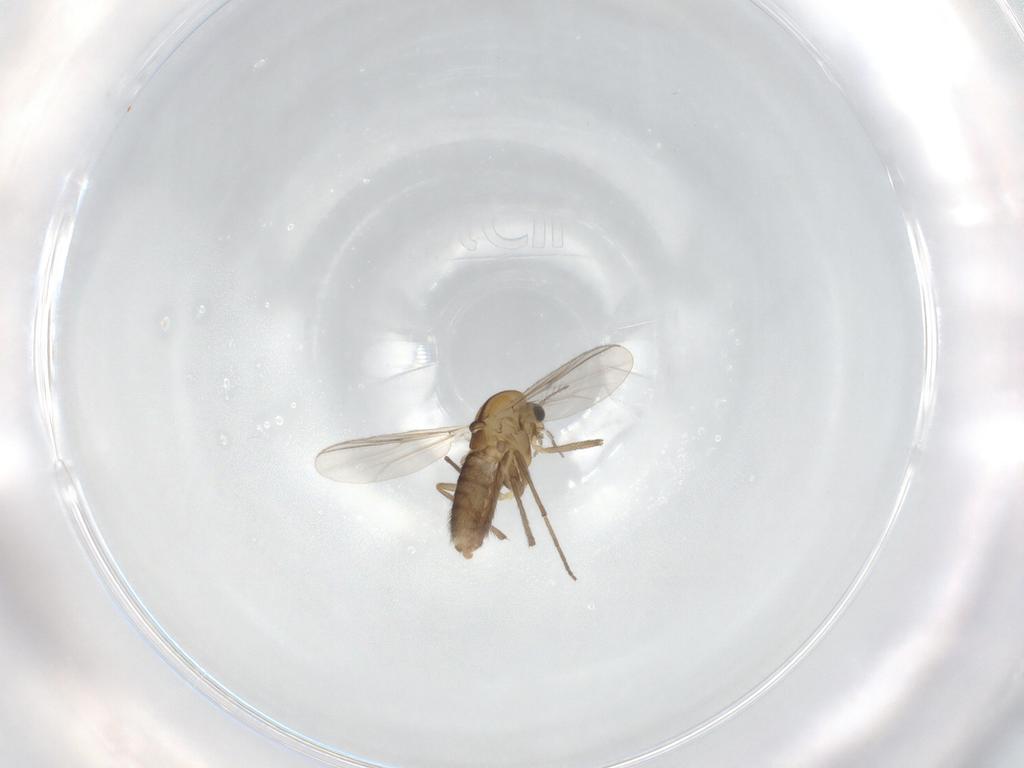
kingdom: Animalia
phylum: Arthropoda
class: Insecta
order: Diptera
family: Chironomidae
